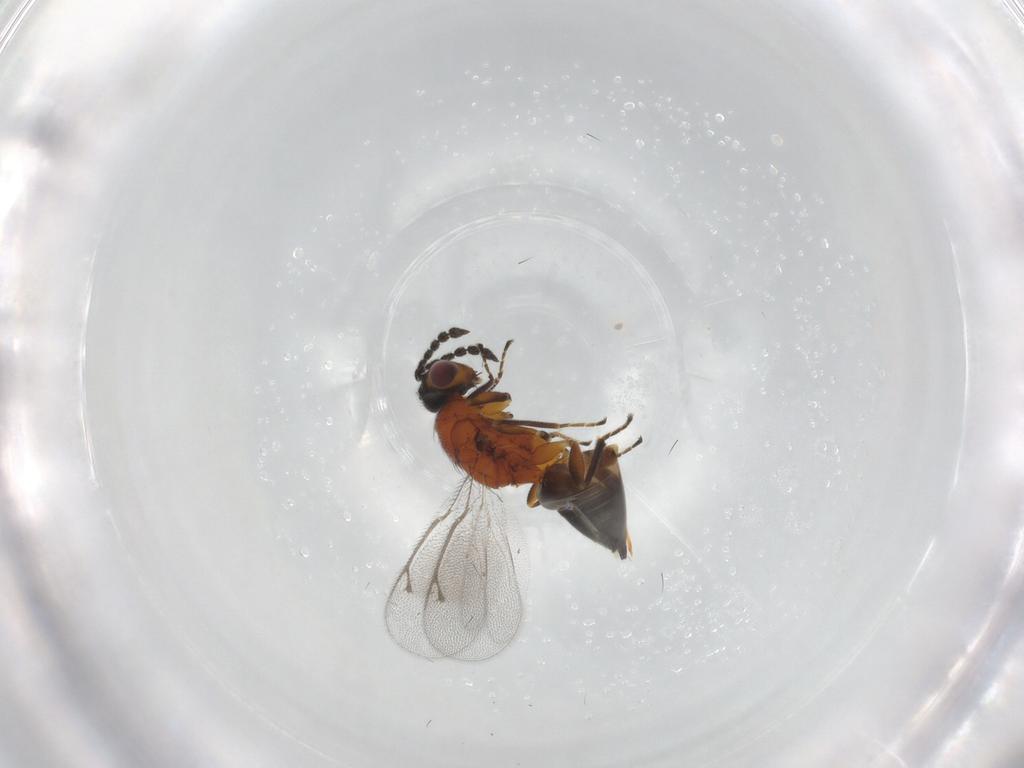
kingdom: Animalia
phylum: Arthropoda
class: Insecta
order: Hymenoptera
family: Eulophidae
